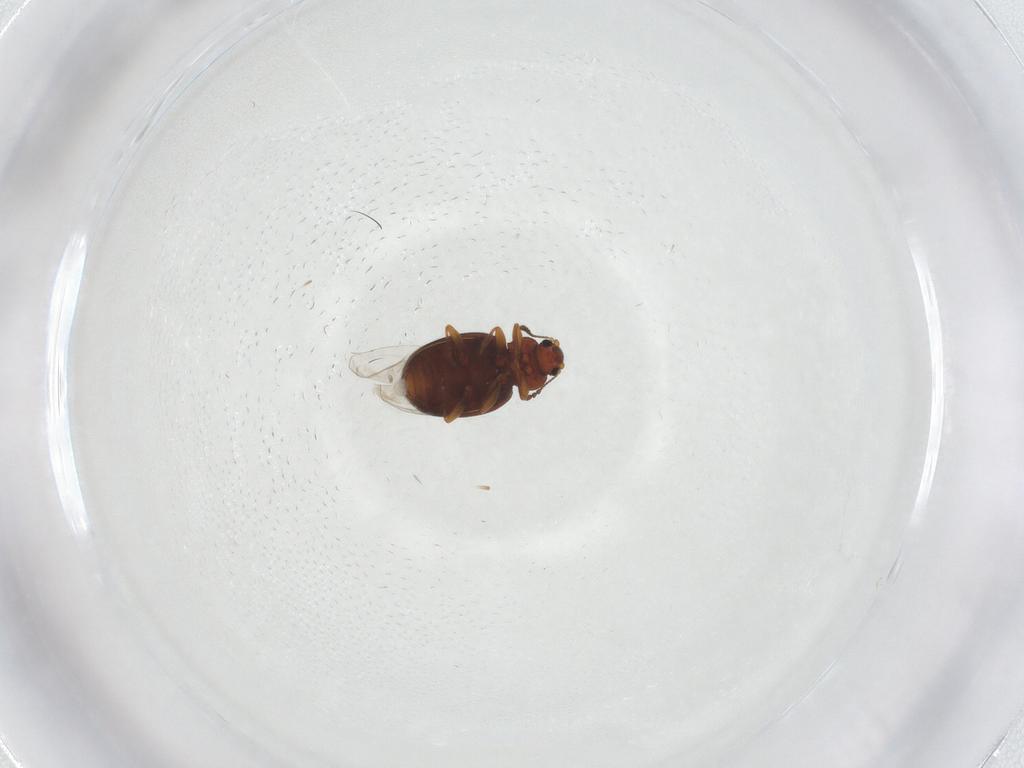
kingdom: Animalia
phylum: Arthropoda
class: Insecta
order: Coleoptera
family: Latridiidae
